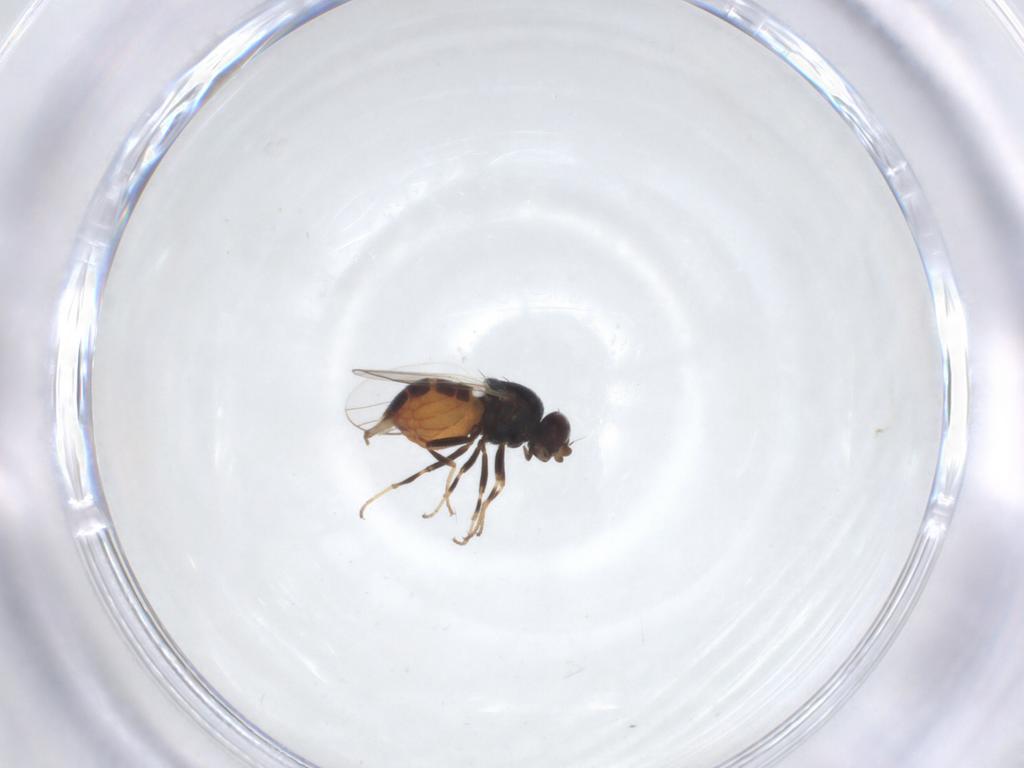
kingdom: Animalia
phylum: Arthropoda
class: Insecta
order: Diptera
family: Chloropidae
